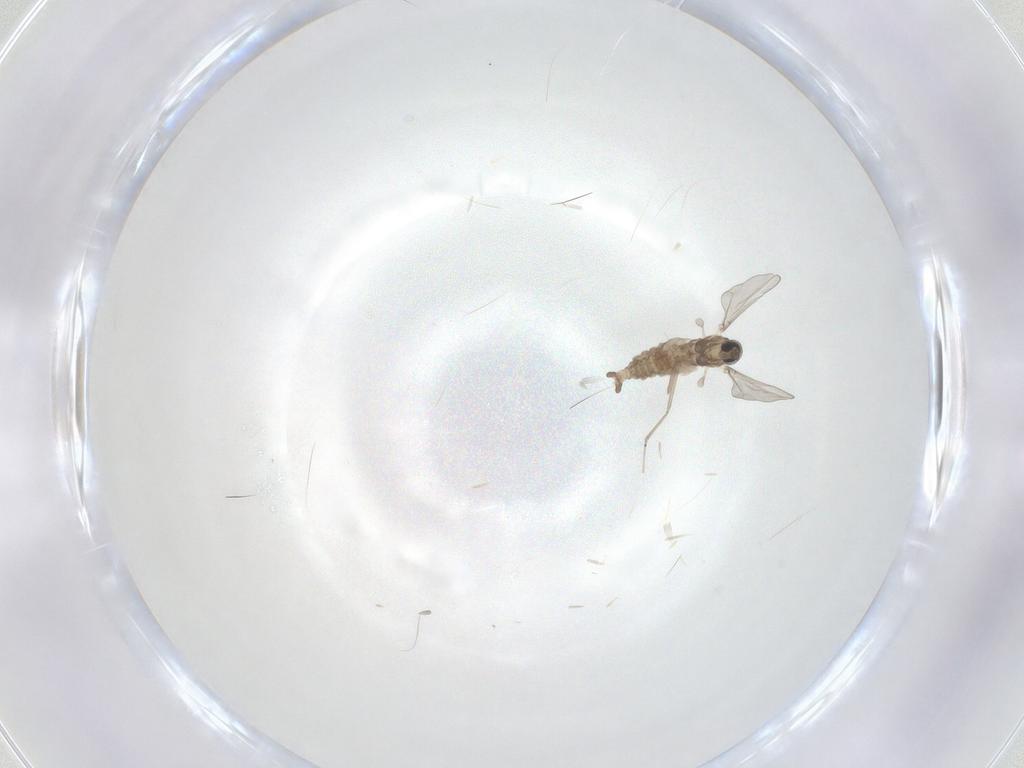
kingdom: Animalia
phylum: Arthropoda
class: Insecta
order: Diptera
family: Cecidomyiidae
